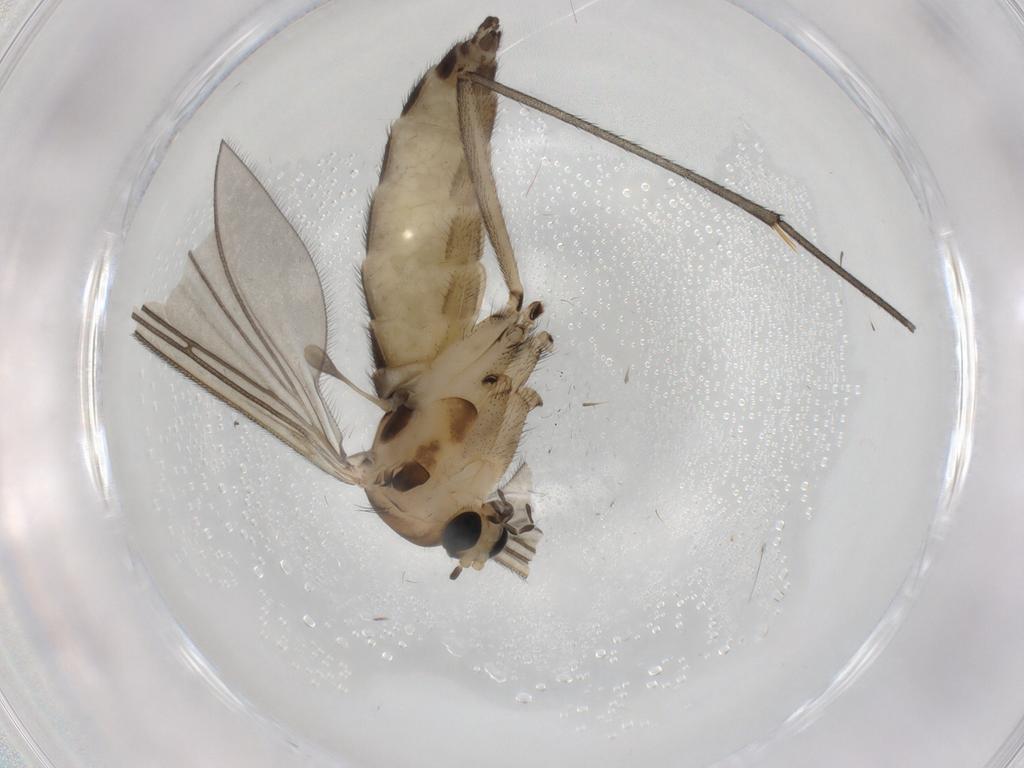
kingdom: Animalia
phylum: Arthropoda
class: Insecta
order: Diptera
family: Sciaridae
